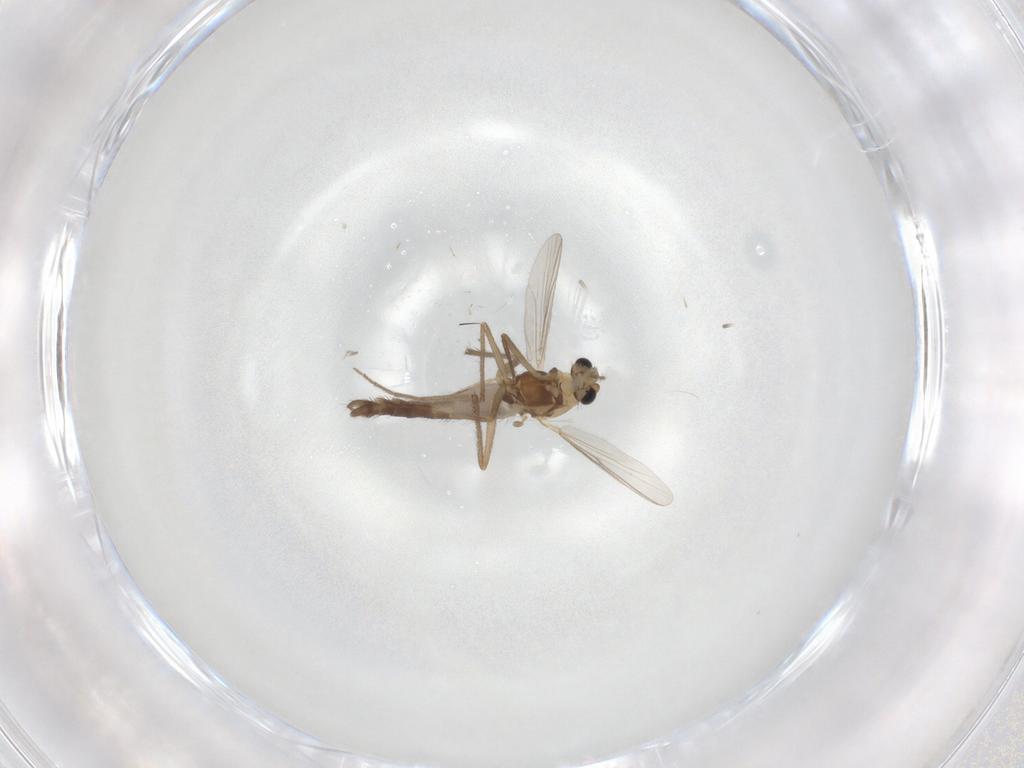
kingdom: Animalia
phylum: Arthropoda
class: Insecta
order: Diptera
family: Chironomidae
